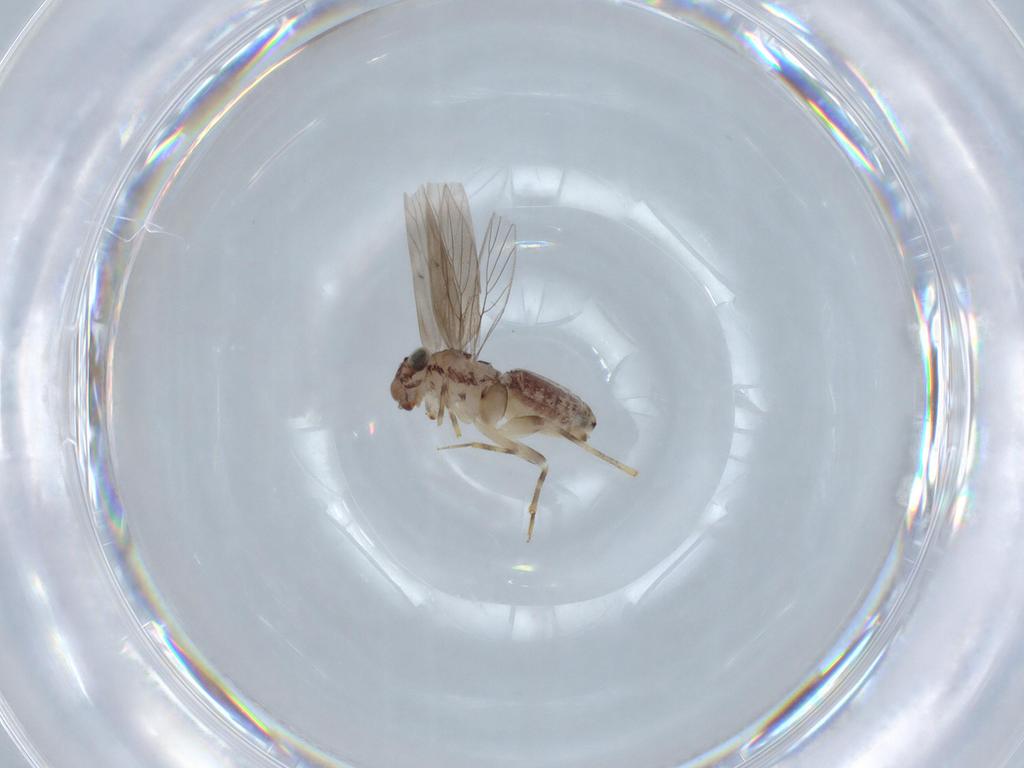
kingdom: Animalia
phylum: Arthropoda
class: Insecta
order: Psocodea
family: Lepidopsocidae
